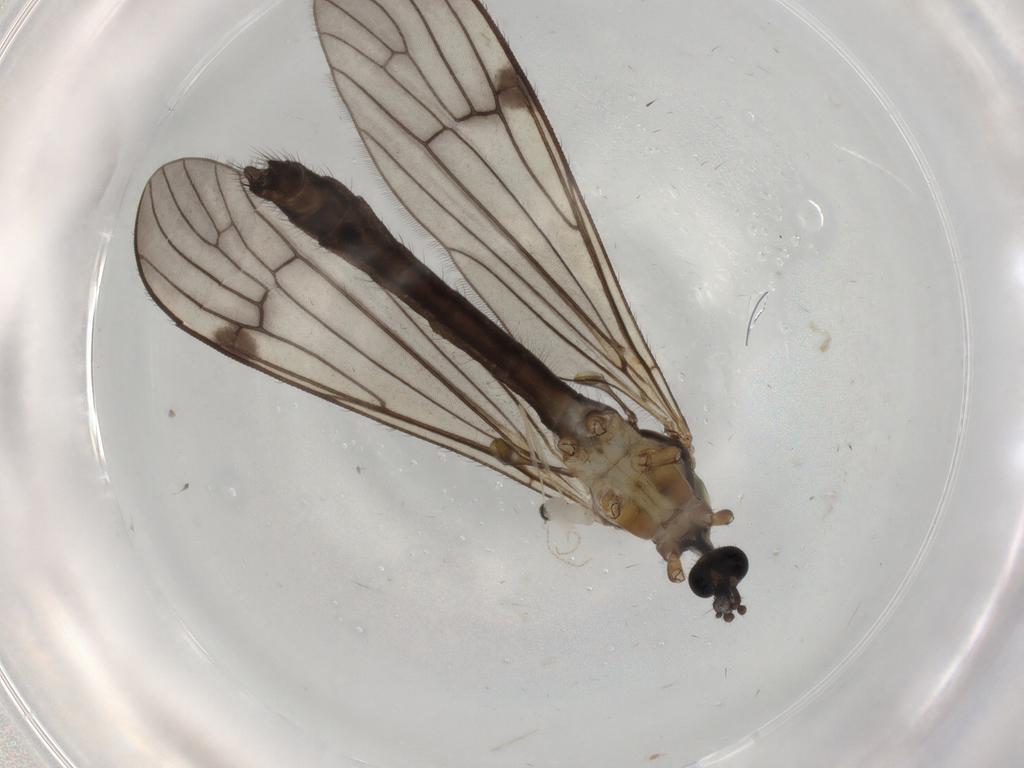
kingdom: Animalia
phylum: Arthropoda
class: Insecta
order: Diptera
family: Limoniidae
